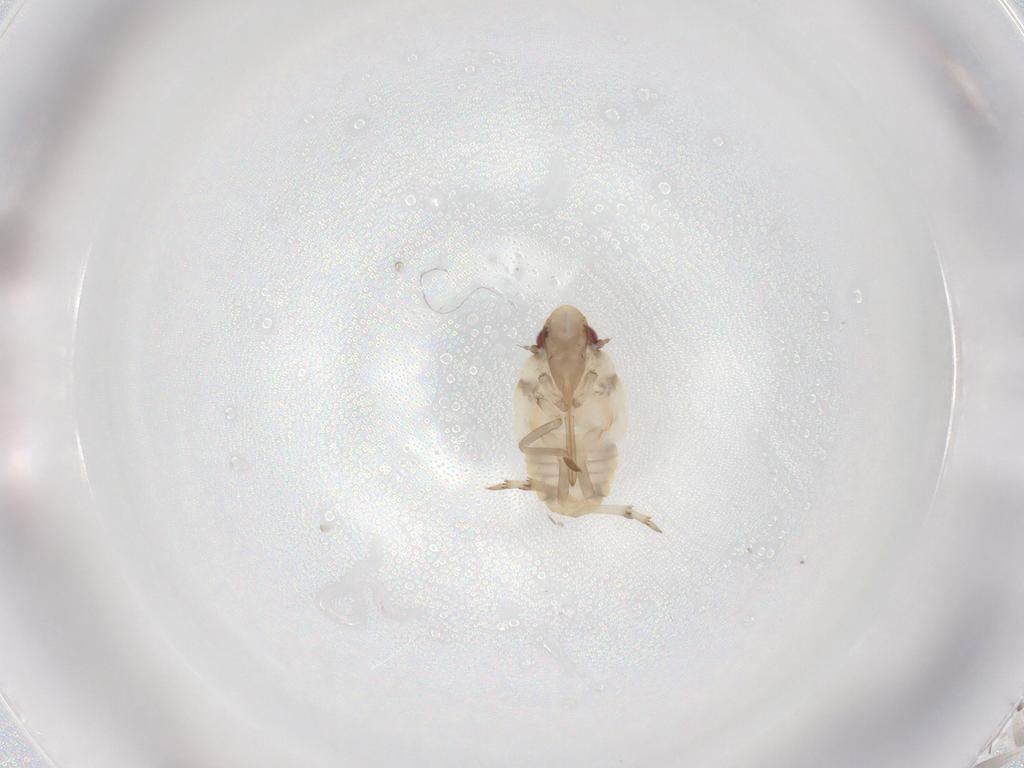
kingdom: Animalia
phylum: Arthropoda
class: Insecta
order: Hemiptera
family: Flatidae
